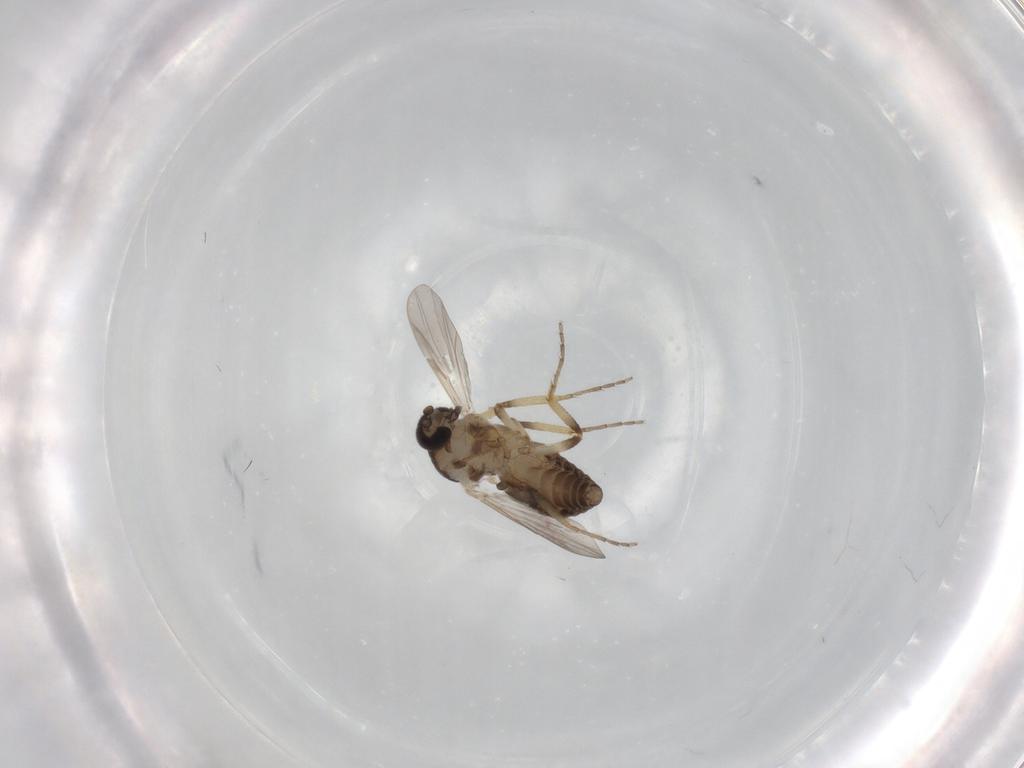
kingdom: Animalia
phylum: Arthropoda
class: Insecta
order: Diptera
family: Ceratopogonidae
